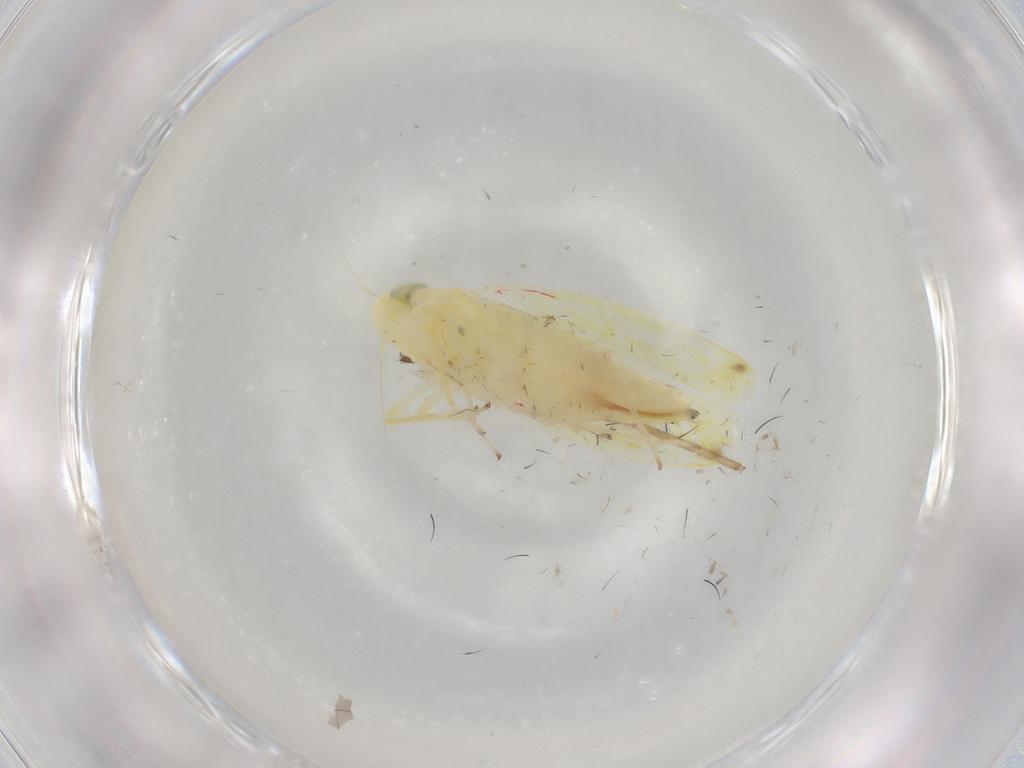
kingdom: Animalia
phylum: Arthropoda
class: Insecta
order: Hemiptera
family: Cicadellidae
